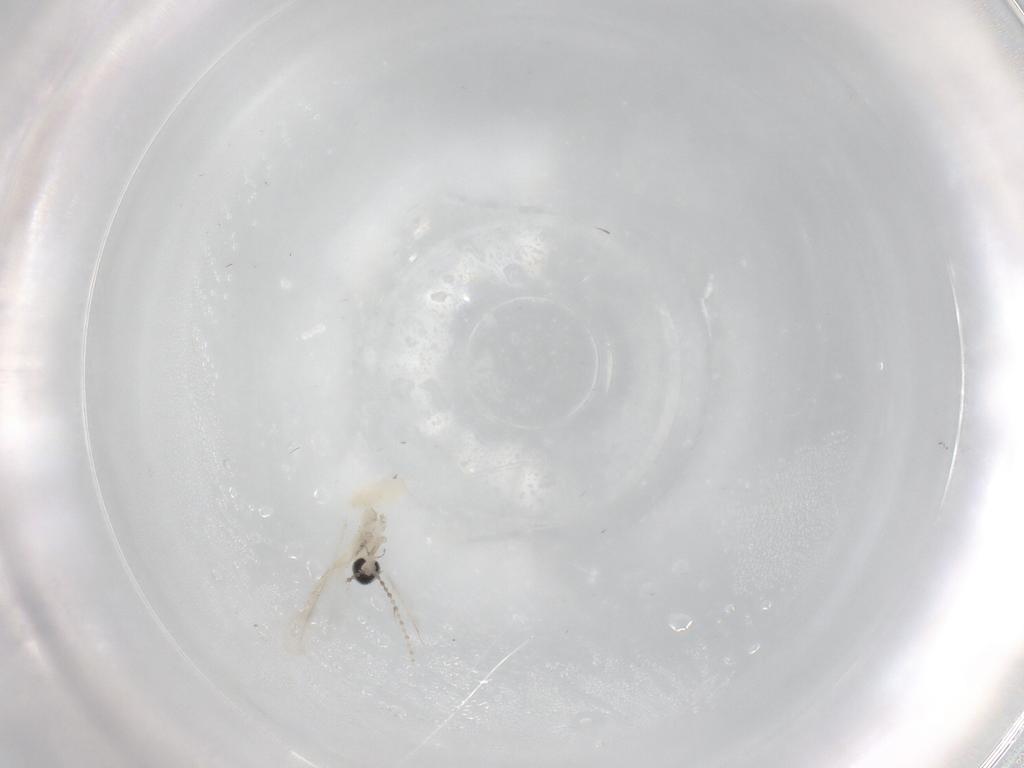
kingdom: Animalia
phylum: Arthropoda
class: Insecta
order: Diptera
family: Cecidomyiidae
